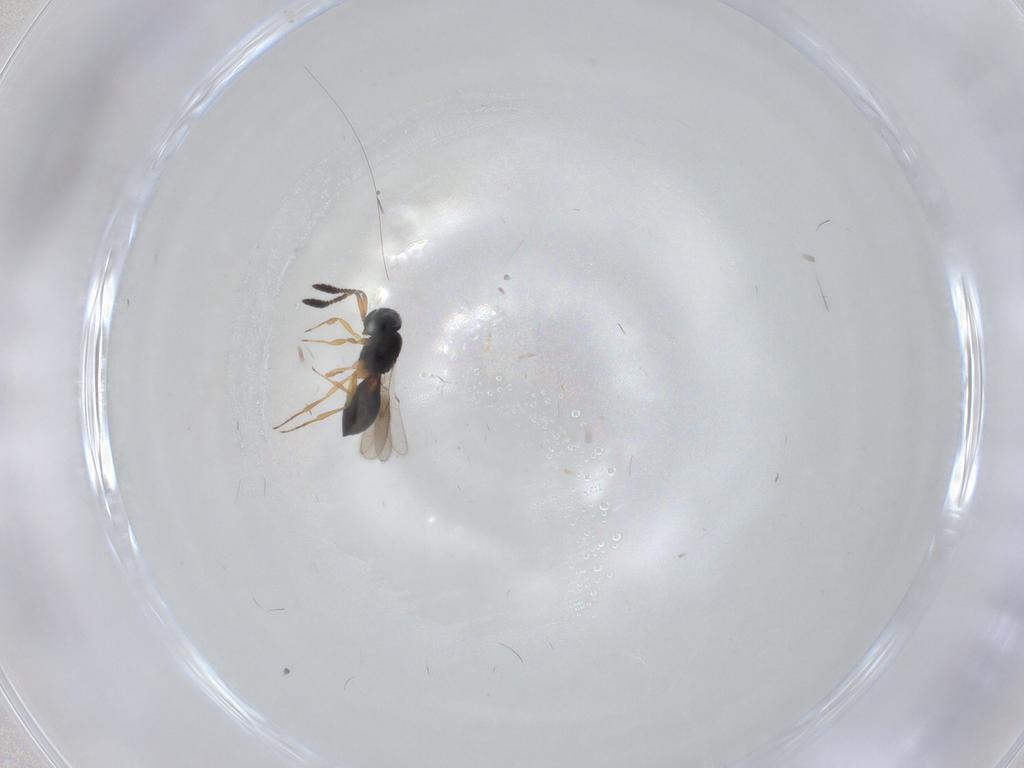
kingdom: Animalia
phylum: Arthropoda
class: Insecta
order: Hymenoptera
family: Scelionidae
